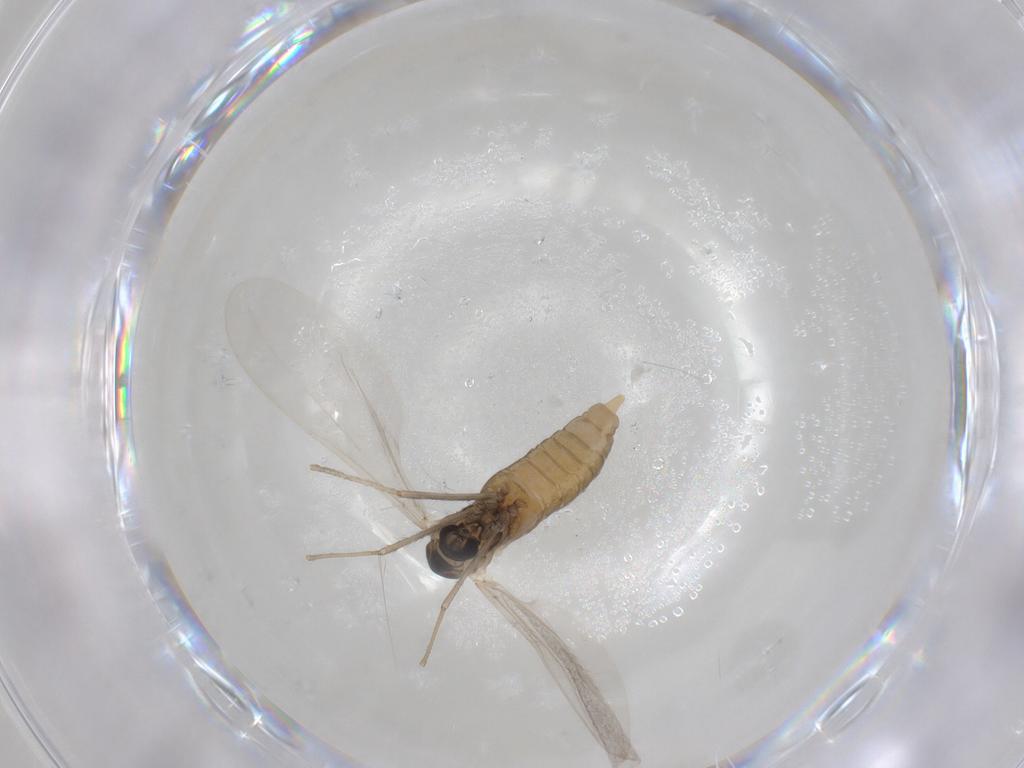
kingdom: Animalia
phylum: Arthropoda
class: Insecta
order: Diptera
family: Cecidomyiidae
